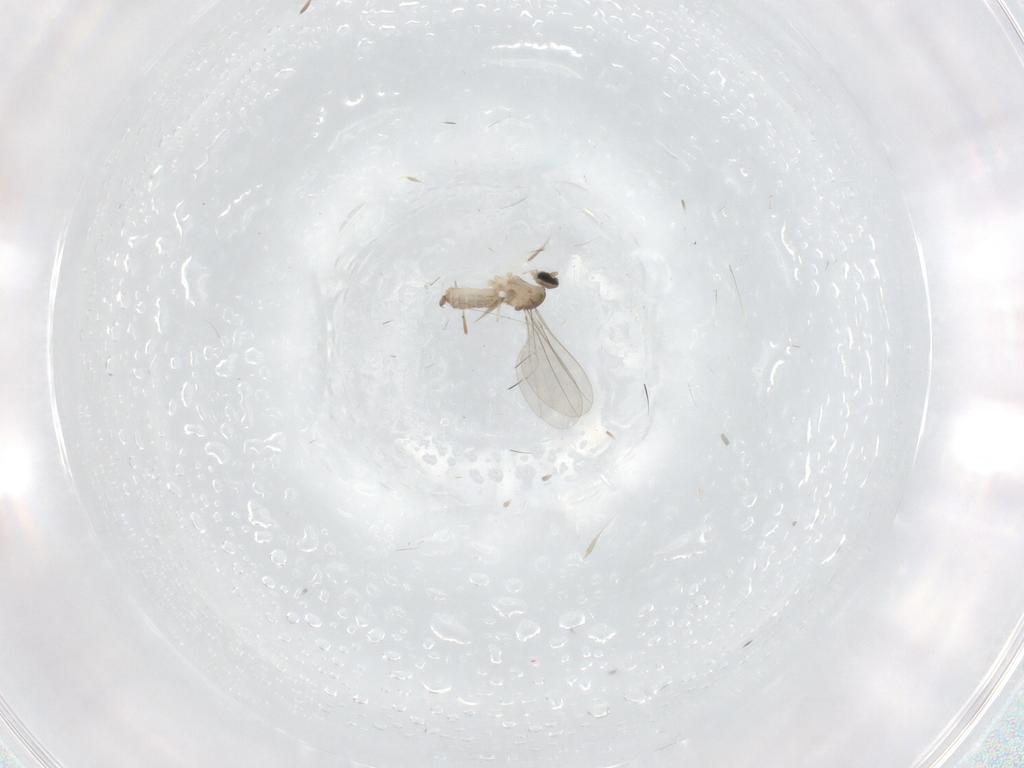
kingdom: Animalia
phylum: Arthropoda
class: Insecta
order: Diptera
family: Cecidomyiidae
